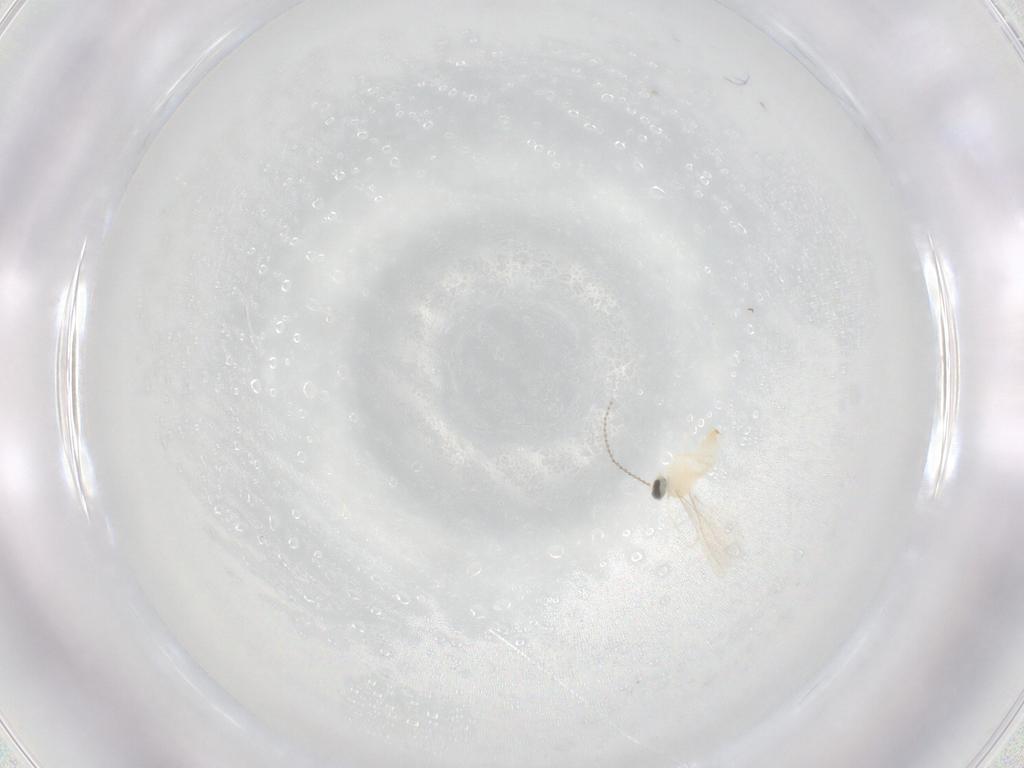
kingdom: Animalia
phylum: Arthropoda
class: Insecta
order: Diptera
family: Cecidomyiidae
